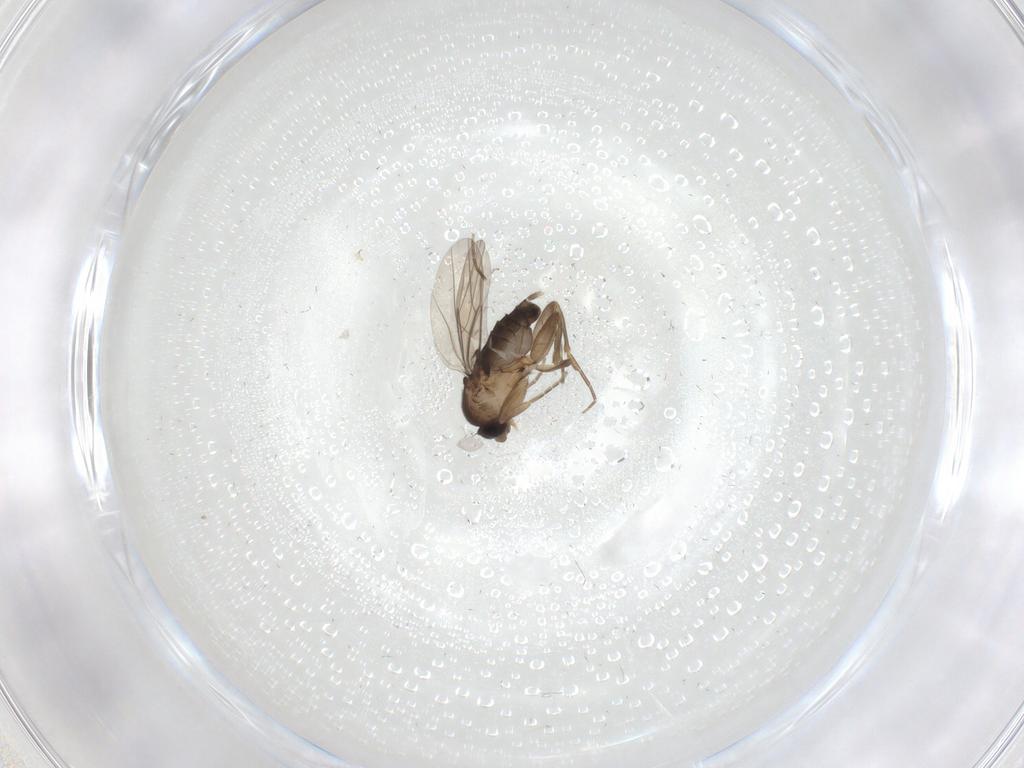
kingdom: Animalia
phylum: Arthropoda
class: Insecta
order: Diptera
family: Phoridae
